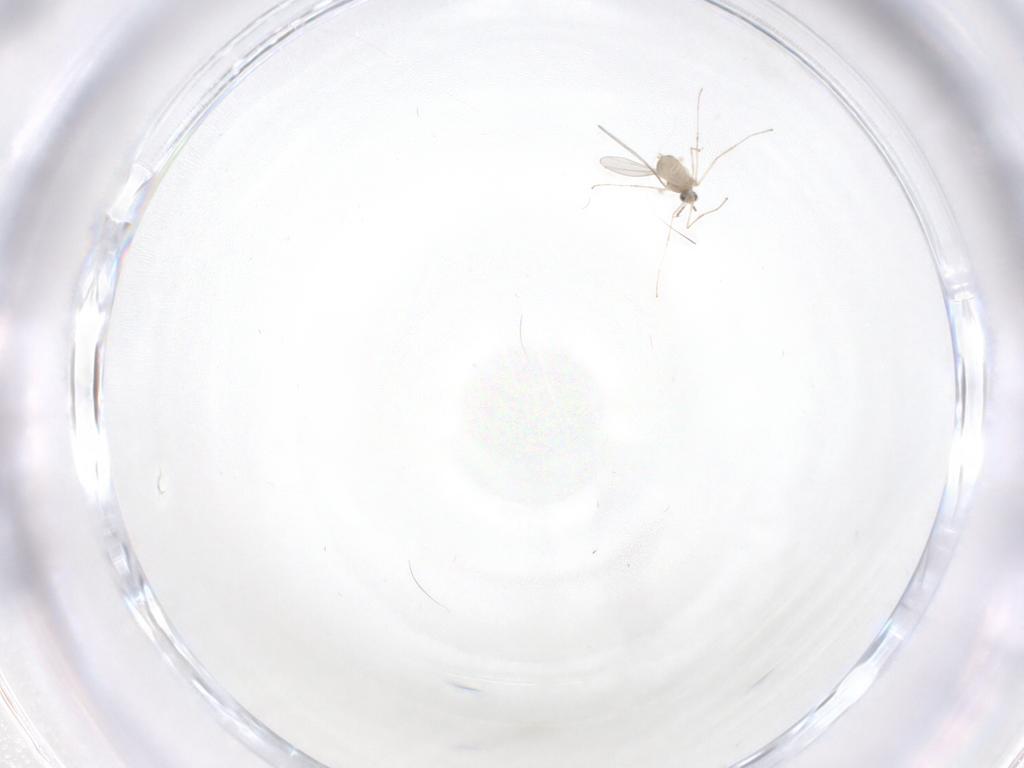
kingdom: Animalia
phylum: Arthropoda
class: Insecta
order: Diptera
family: Cecidomyiidae
